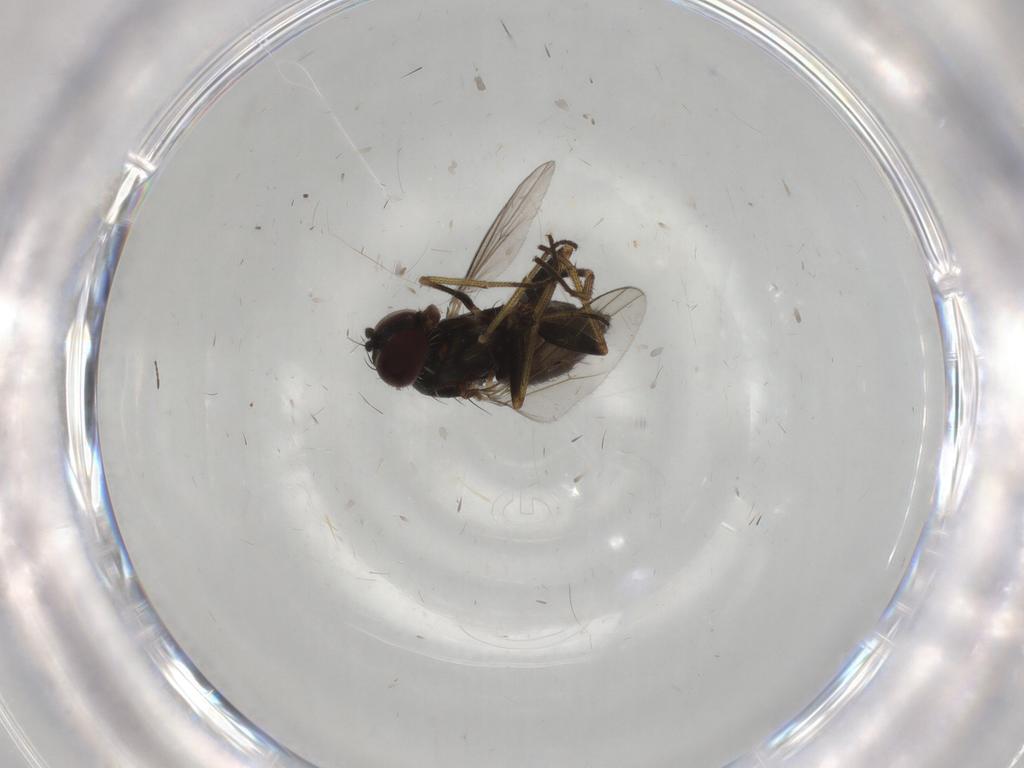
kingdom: Animalia
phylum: Arthropoda
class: Insecta
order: Diptera
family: Dolichopodidae
